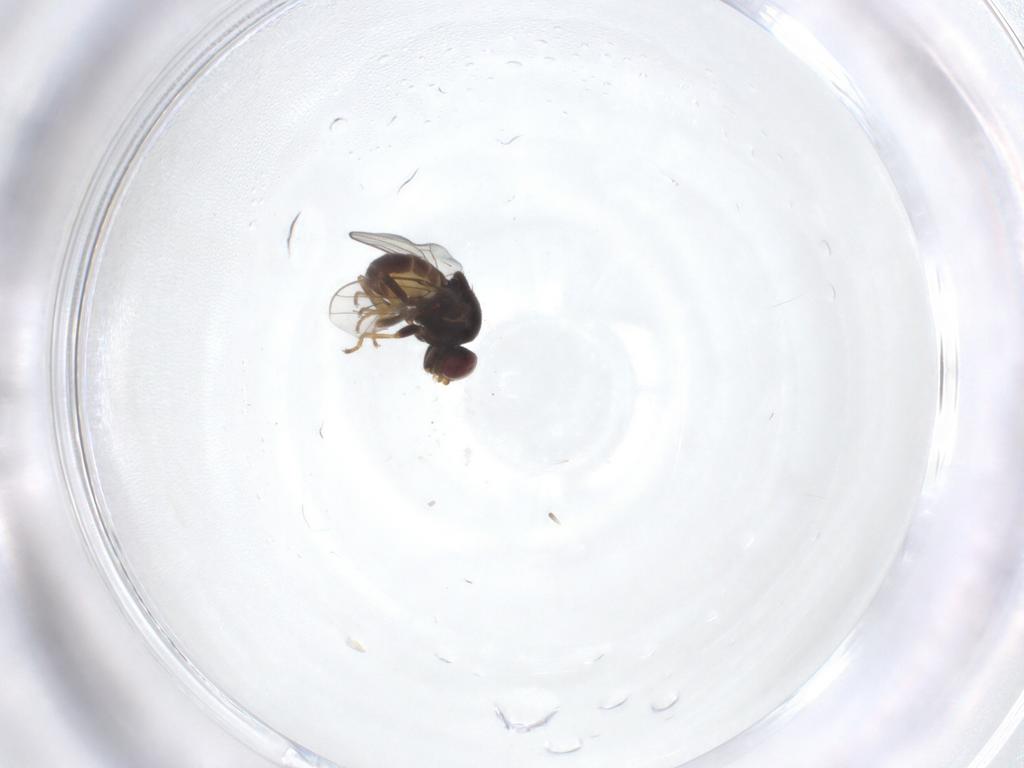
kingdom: Animalia
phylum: Arthropoda
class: Insecta
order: Diptera
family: Chloropidae
